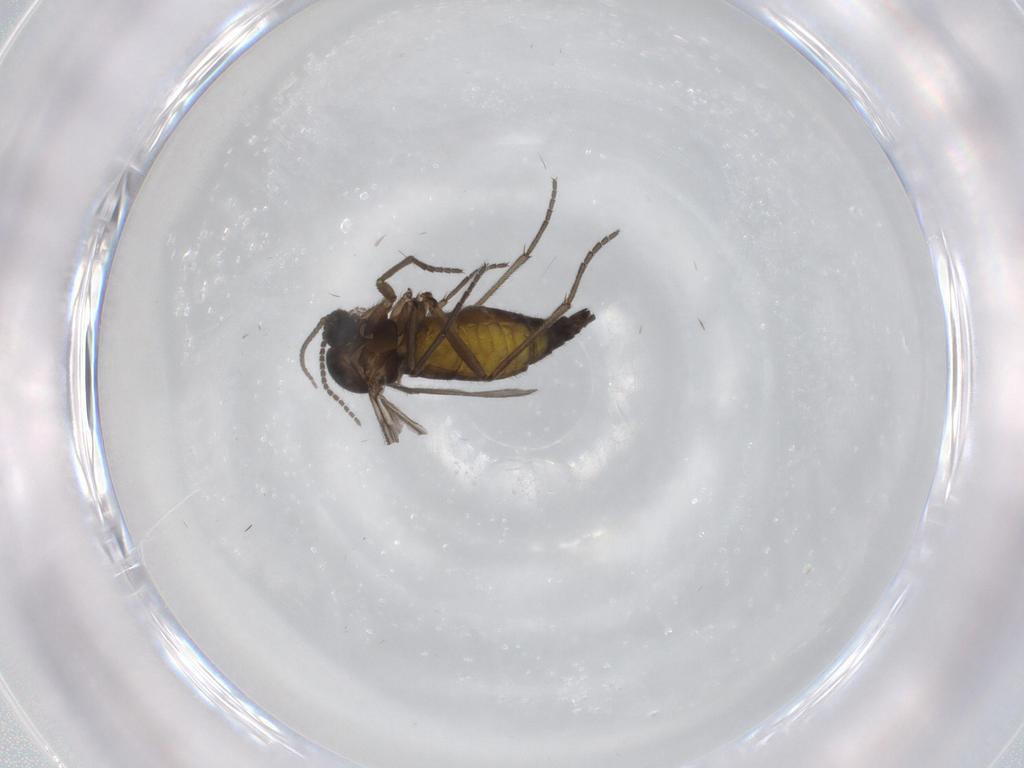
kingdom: Animalia
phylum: Arthropoda
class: Insecta
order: Diptera
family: Sciaridae
